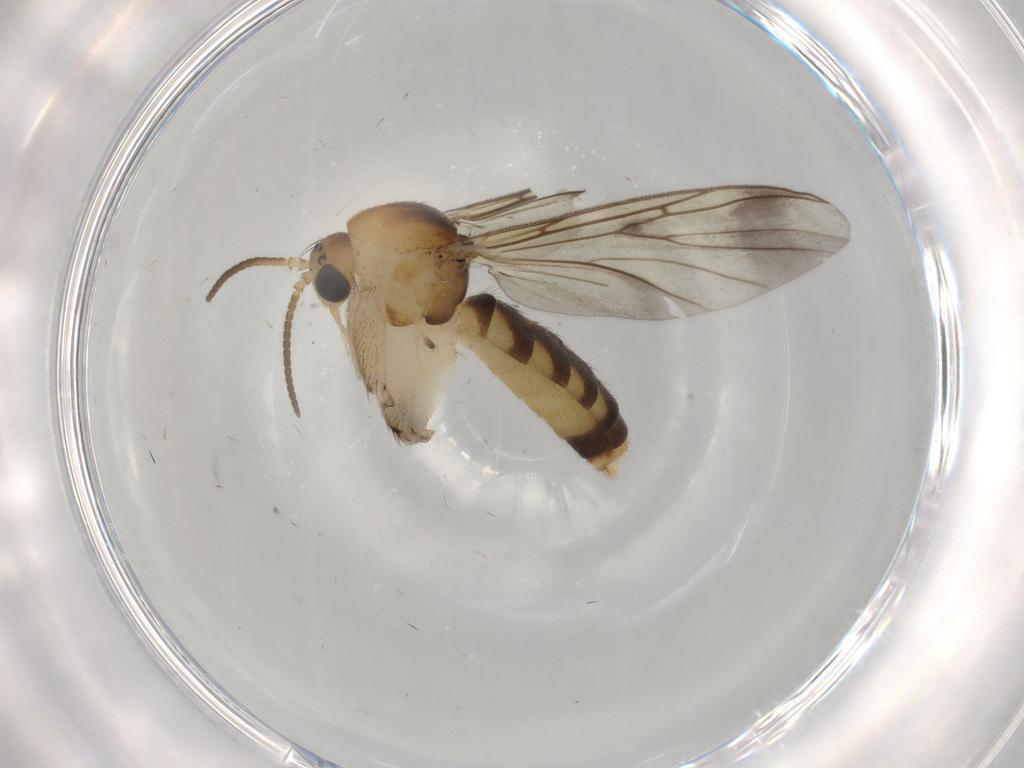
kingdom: Animalia
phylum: Arthropoda
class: Insecta
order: Diptera
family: Mycetophilidae
